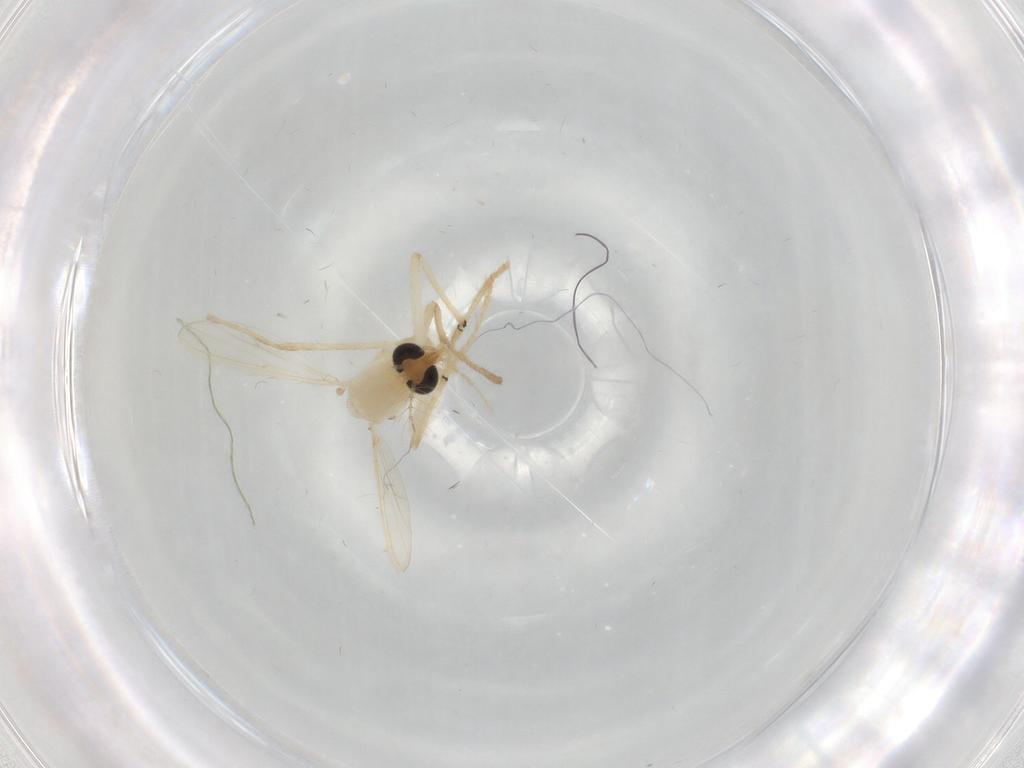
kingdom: Animalia
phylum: Arthropoda
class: Insecta
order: Diptera
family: Chironomidae
